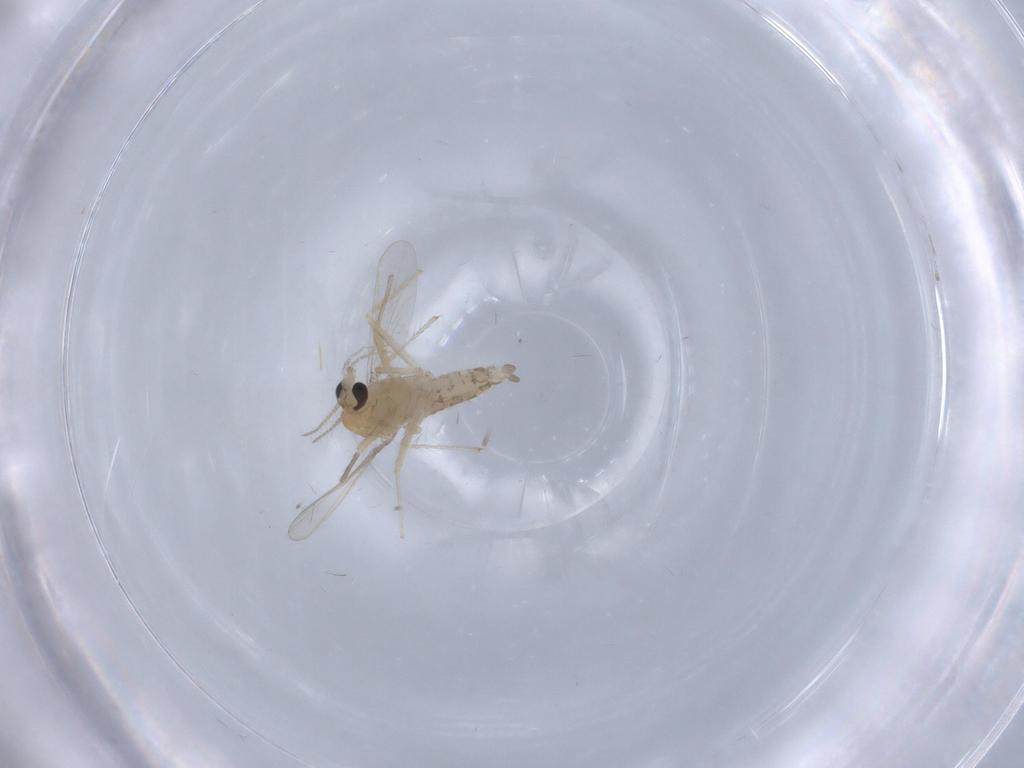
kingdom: Animalia
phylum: Arthropoda
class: Insecta
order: Diptera
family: Chironomidae
